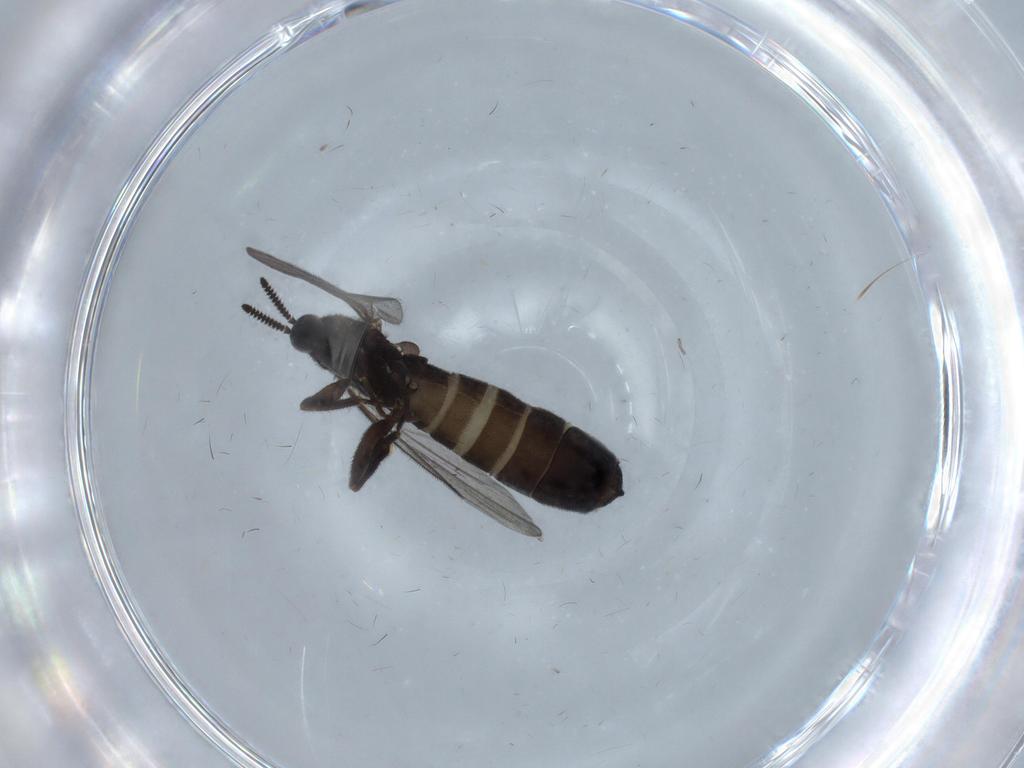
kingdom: Animalia
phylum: Arthropoda
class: Insecta
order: Diptera
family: Scatopsidae
